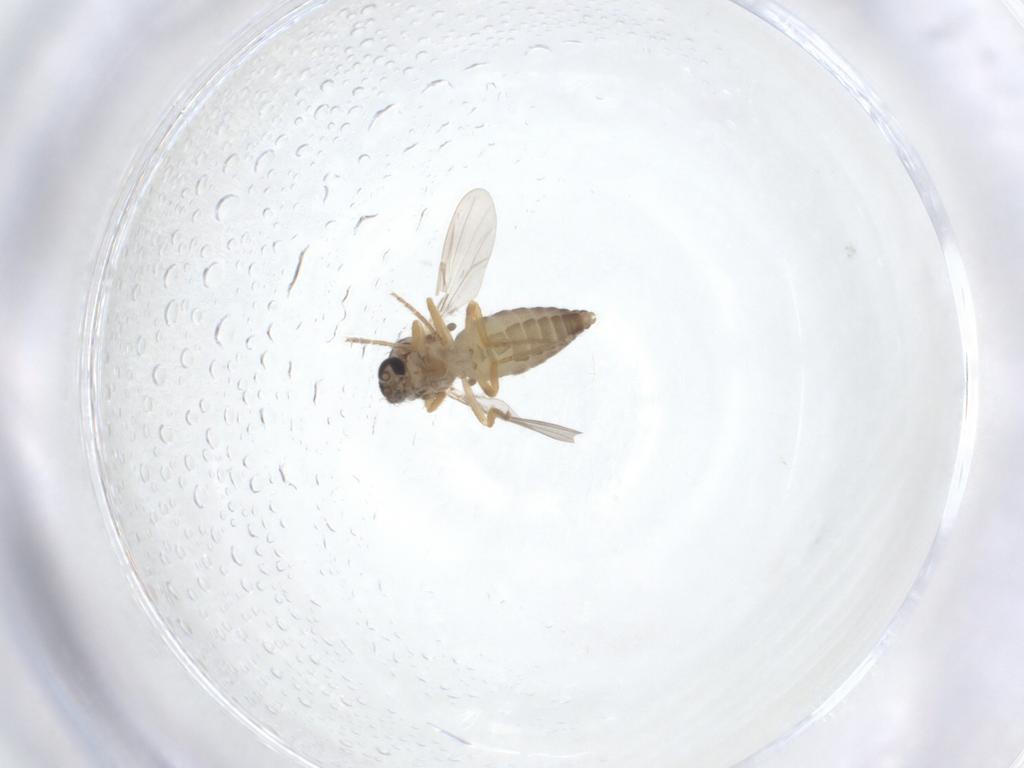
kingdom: Animalia
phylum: Arthropoda
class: Insecta
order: Diptera
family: Ceratopogonidae
